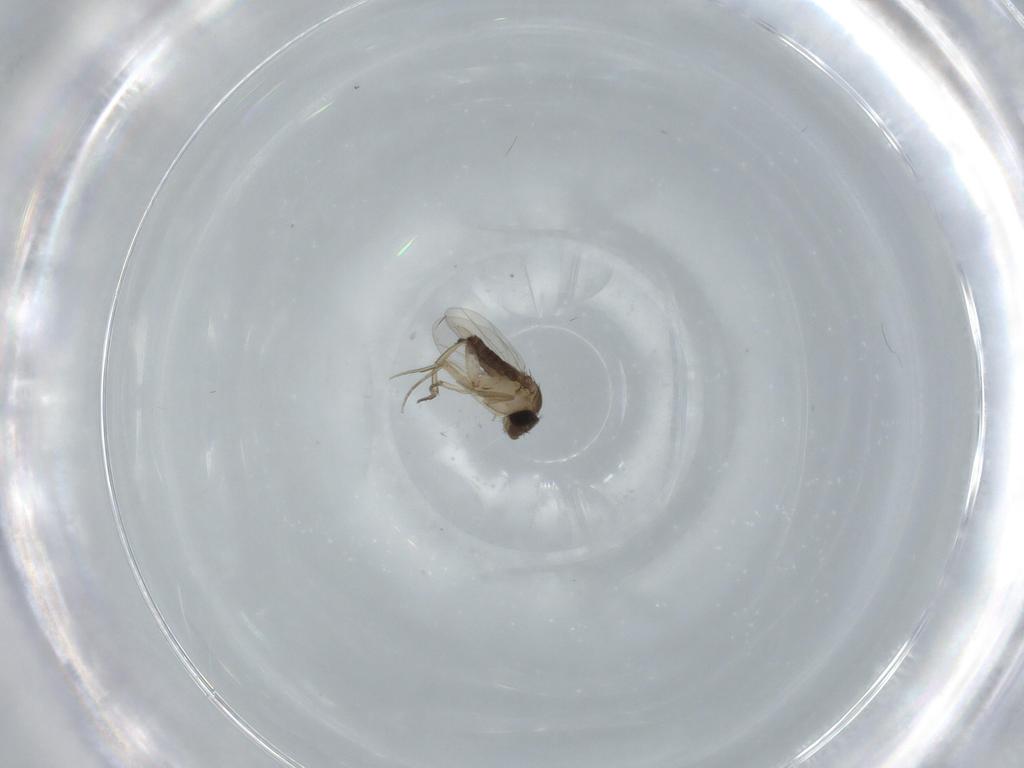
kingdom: Animalia
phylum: Arthropoda
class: Insecta
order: Diptera
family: Phoridae
